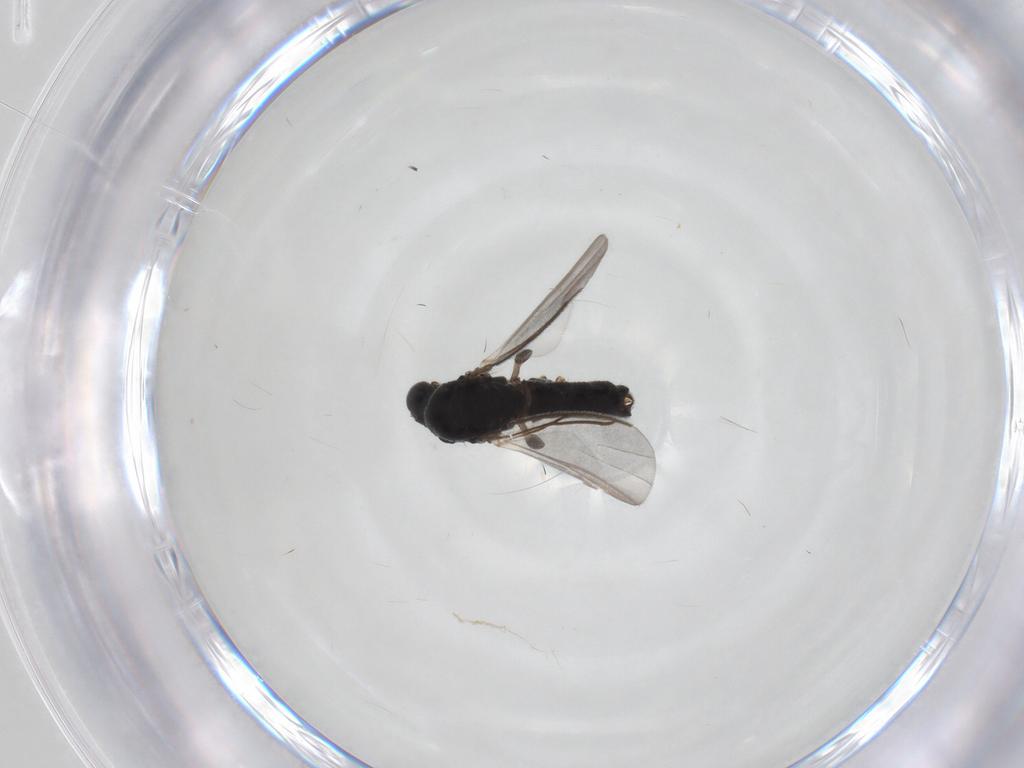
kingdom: Animalia
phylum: Arthropoda
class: Insecta
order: Diptera
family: Mycetophilidae
